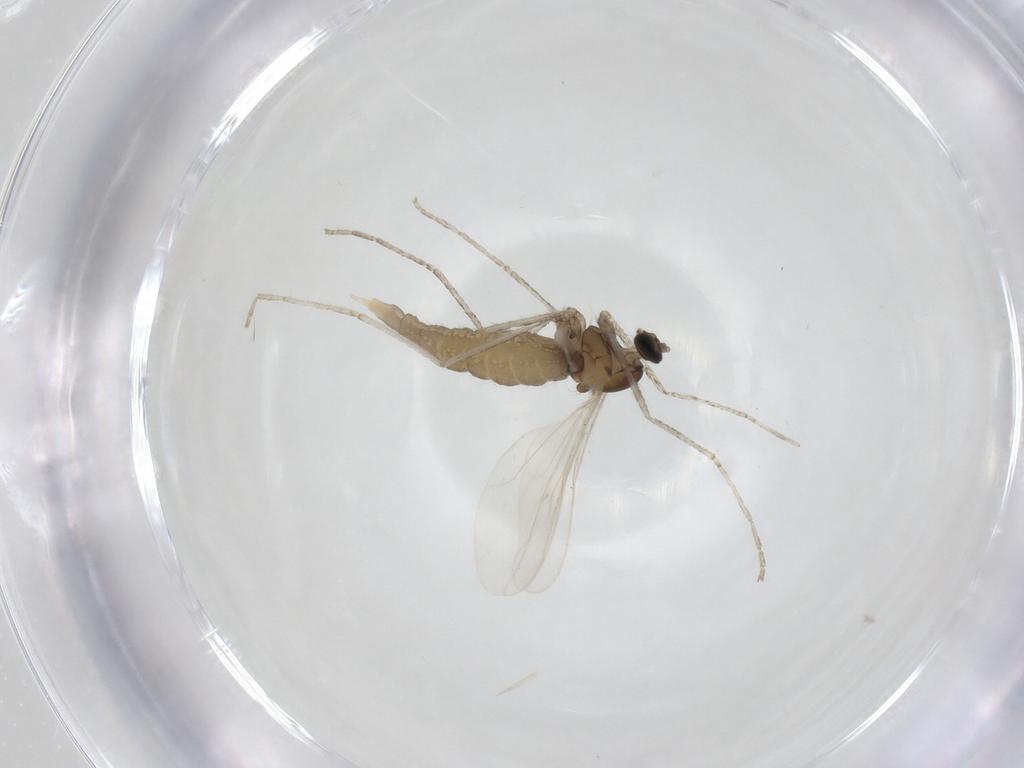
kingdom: Animalia
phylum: Arthropoda
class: Insecta
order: Diptera
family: Cecidomyiidae
